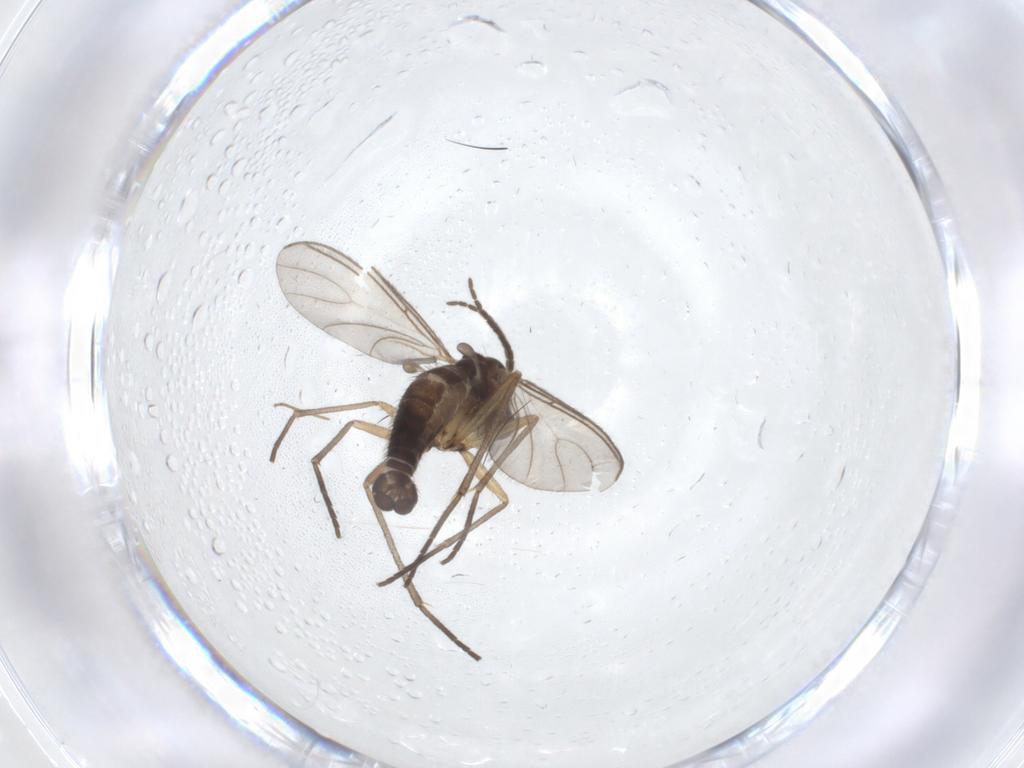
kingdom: Animalia
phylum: Arthropoda
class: Insecta
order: Diptera
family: Sciaridae
